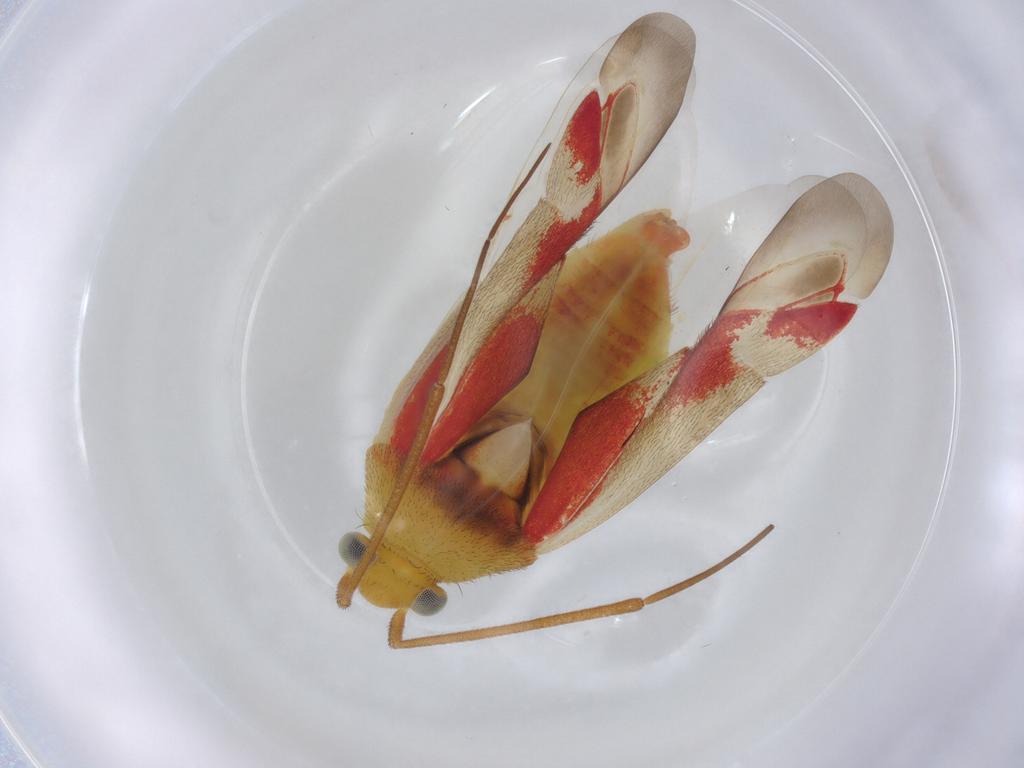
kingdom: Animalia
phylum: Arthropoda
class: Insecta
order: Hemiptera
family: Miridae
